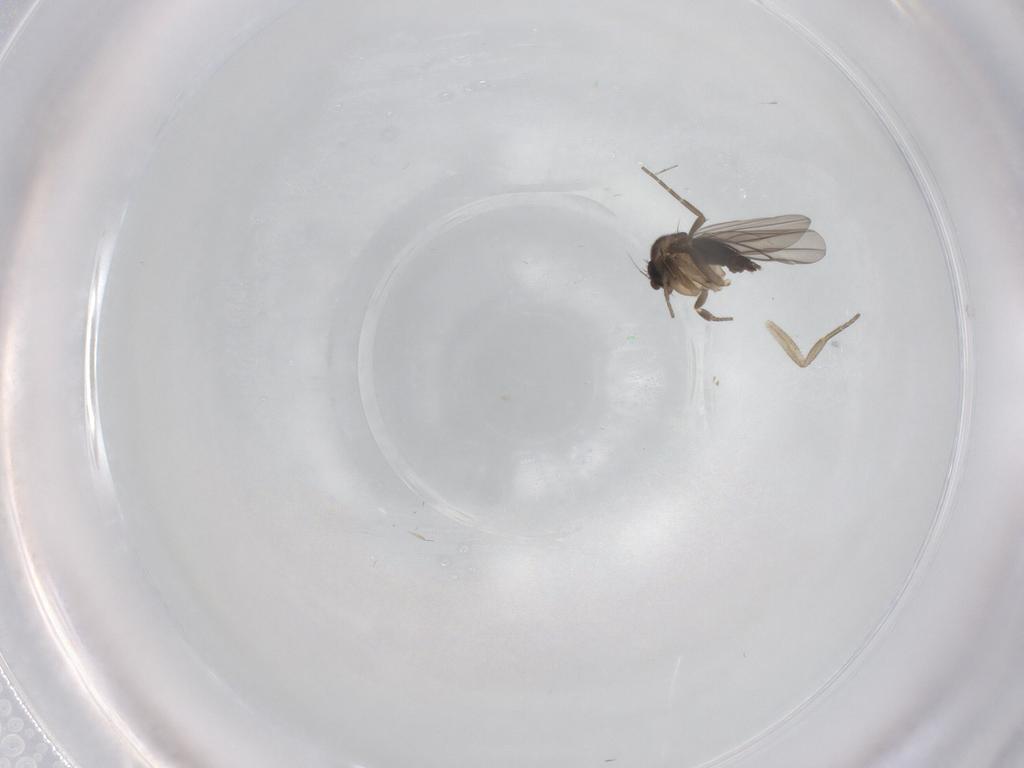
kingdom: Animalia
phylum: Arthropoda
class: Insecta
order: Diptera
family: Phoridae
